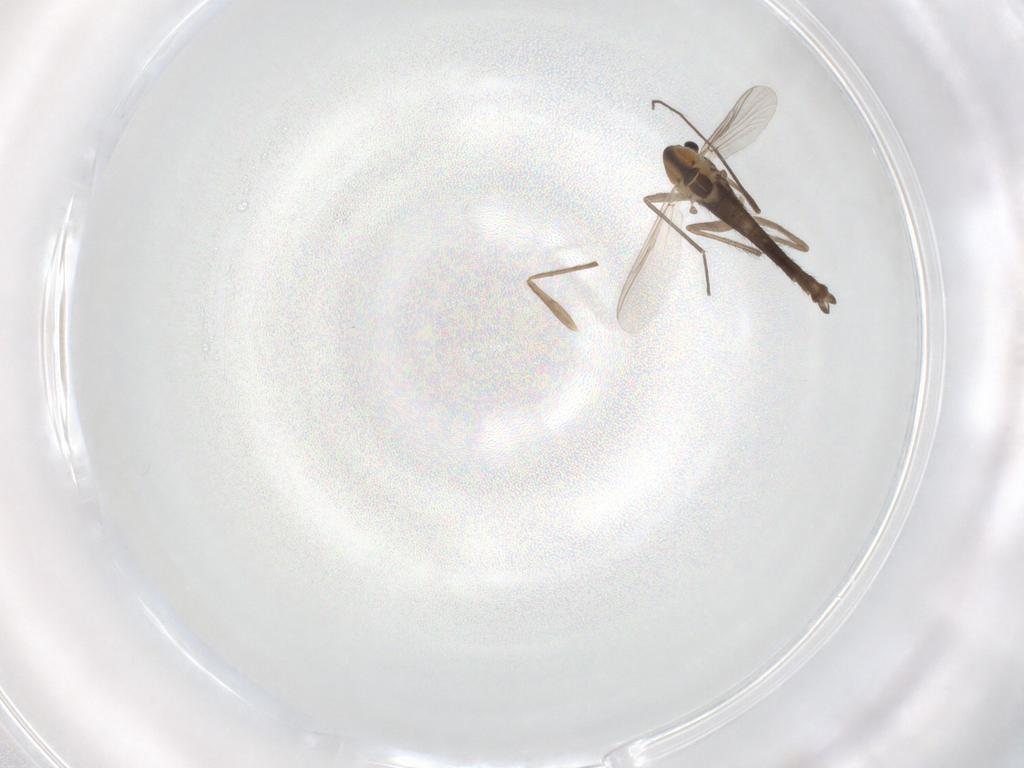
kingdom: Animalia
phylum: Arthropoda
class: Insecta
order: Diptera
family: Chironomidae
